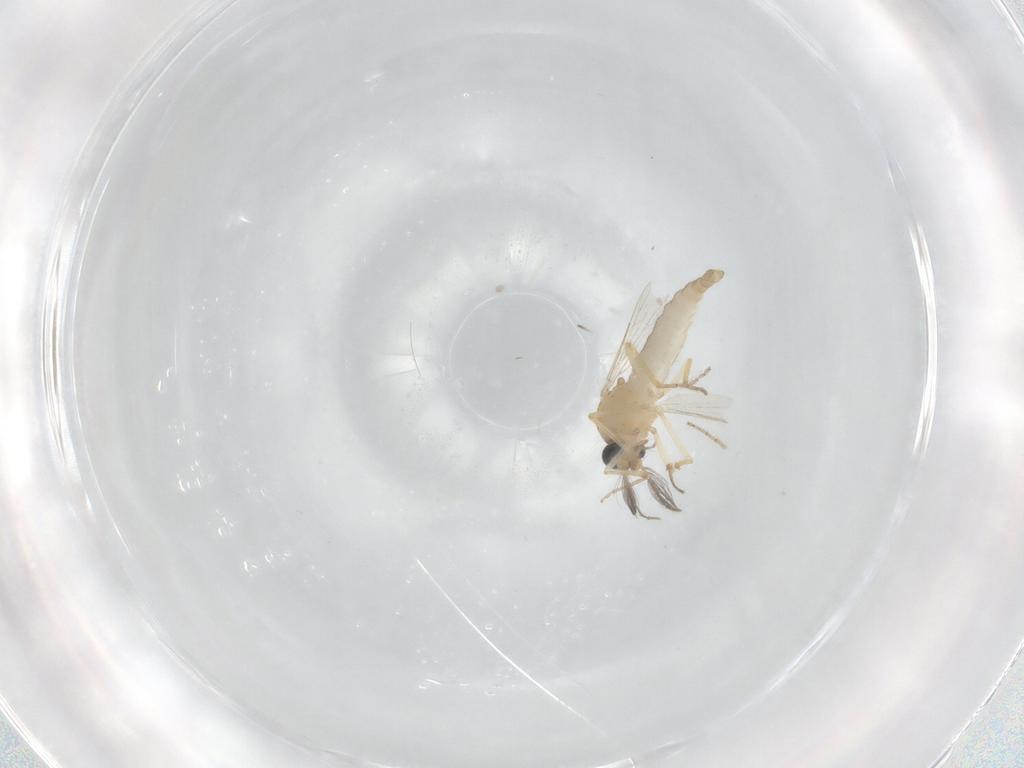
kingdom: Animalia
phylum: Arthropoda
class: Insecta
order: Diptera
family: Ceratopogonidae
